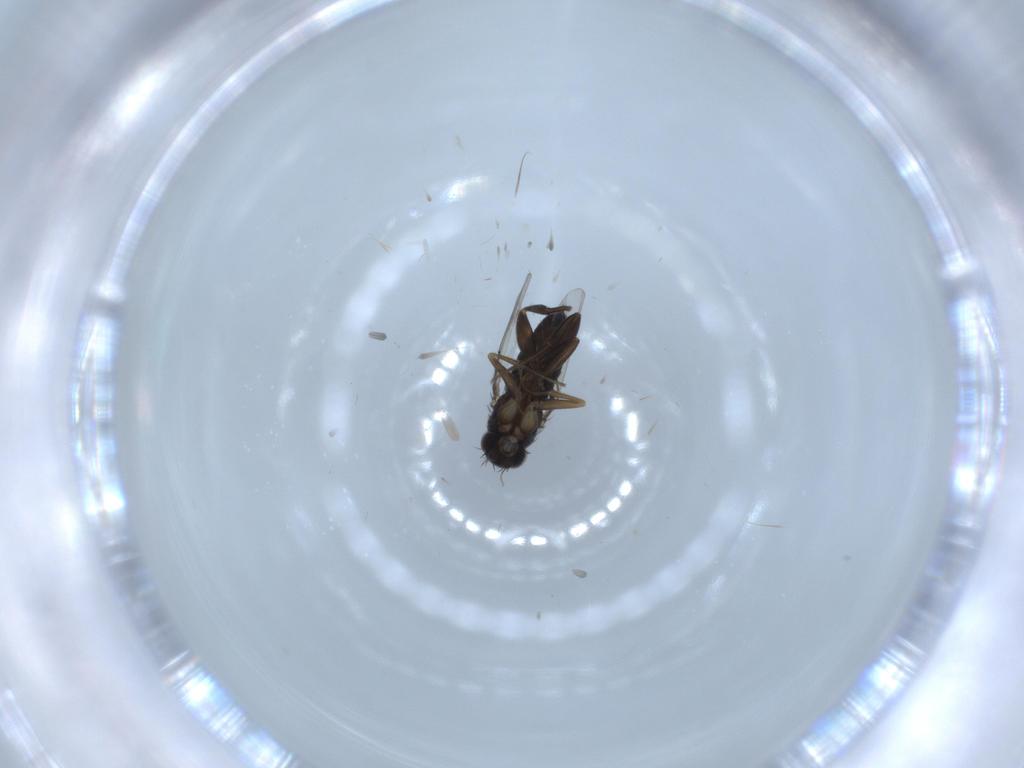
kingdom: Animalia
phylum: Arthropoda
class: Insecta
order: Diptera
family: Phoridae
